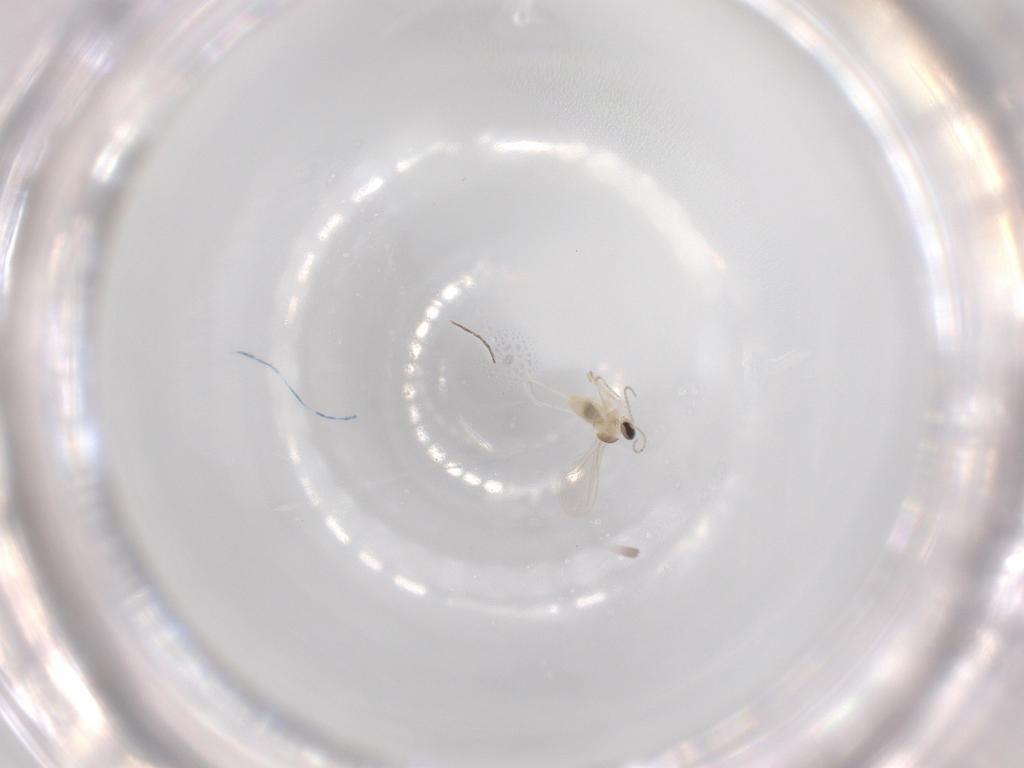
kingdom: Animalia
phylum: Arthropoda
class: Insecta
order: Diptera
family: Cecidomyiidae
